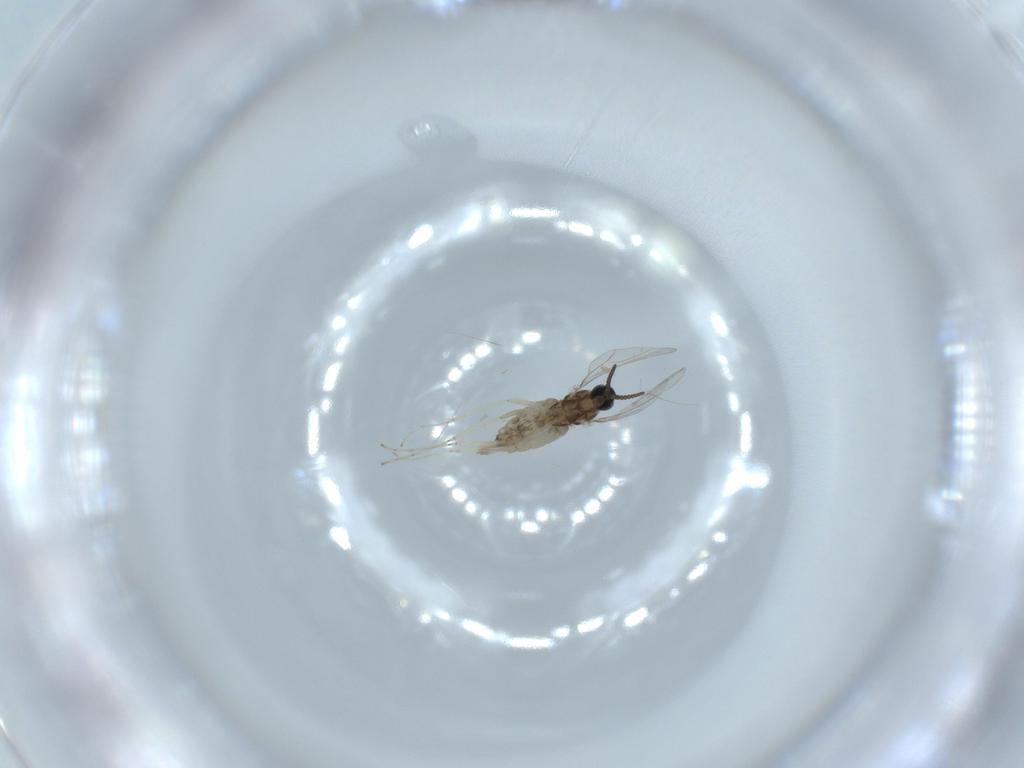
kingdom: Animalia
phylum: Arthropoda
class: Insecta
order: Diptera
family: Cecidomyiidae
